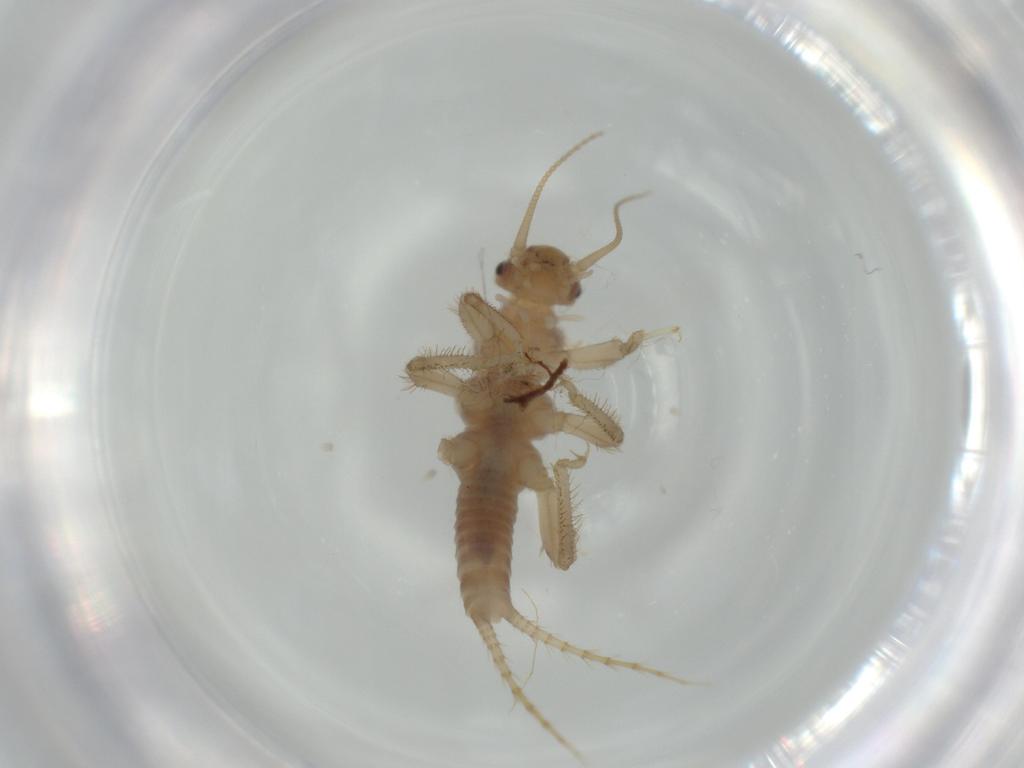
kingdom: Animalia
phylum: Arthropoda
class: Insecta
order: Plecoptera
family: Nemouridae
